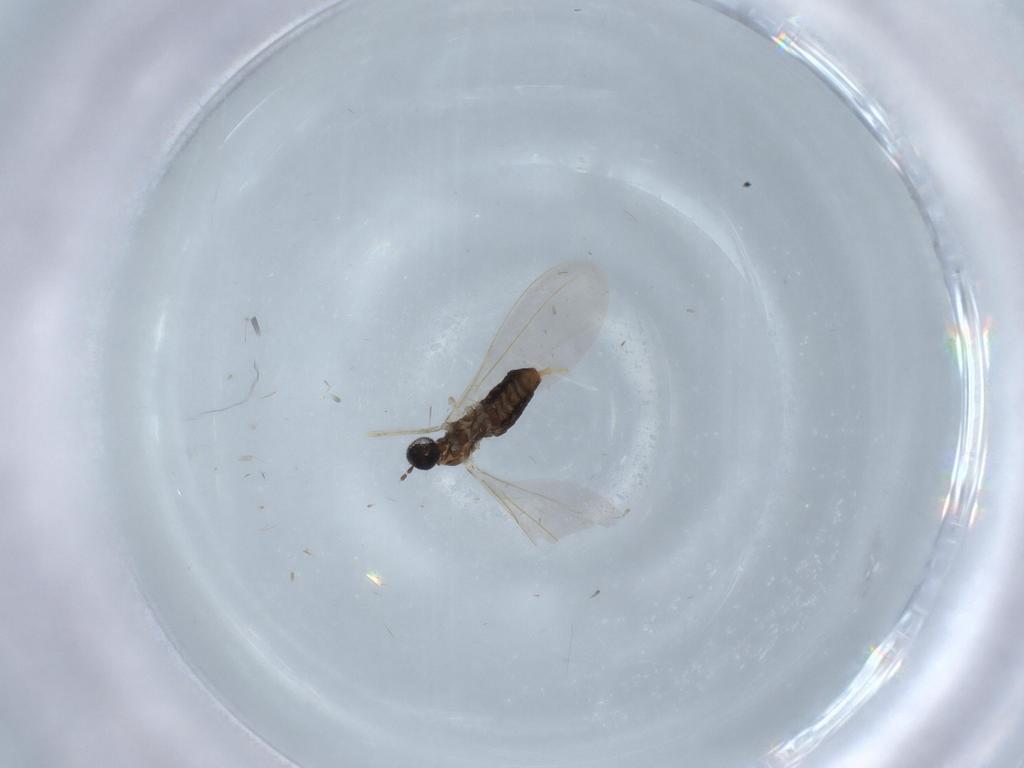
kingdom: Animalia
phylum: Arthropoda
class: Insecta
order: Diptera
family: Cecidomyiidae
